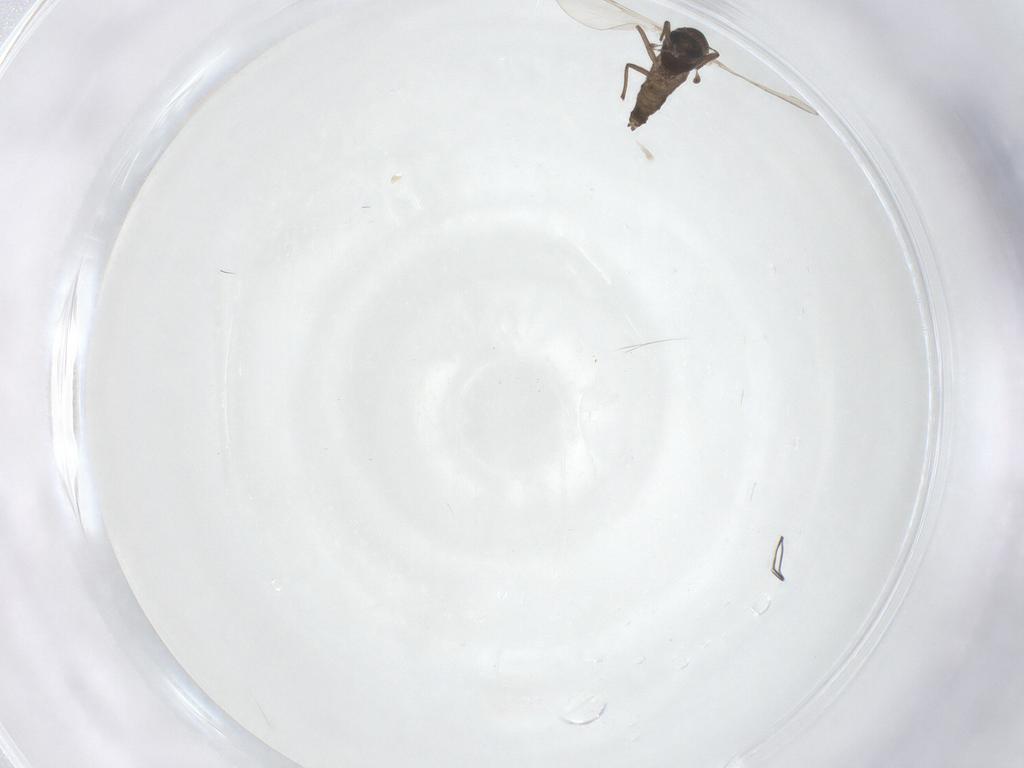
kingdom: Animalia
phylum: Arthropoda
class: Insecta
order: Diptera
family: Chironomidae
